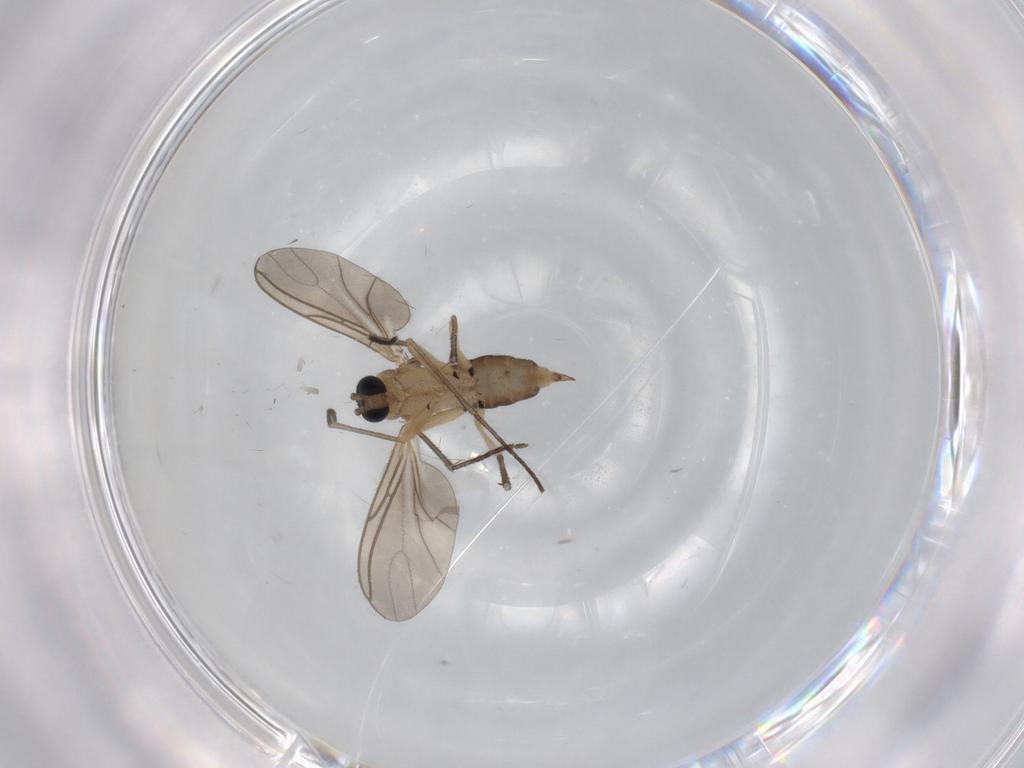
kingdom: Animalia
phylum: Arthropoda
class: Insecta
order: Diptera
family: Sciaridae
